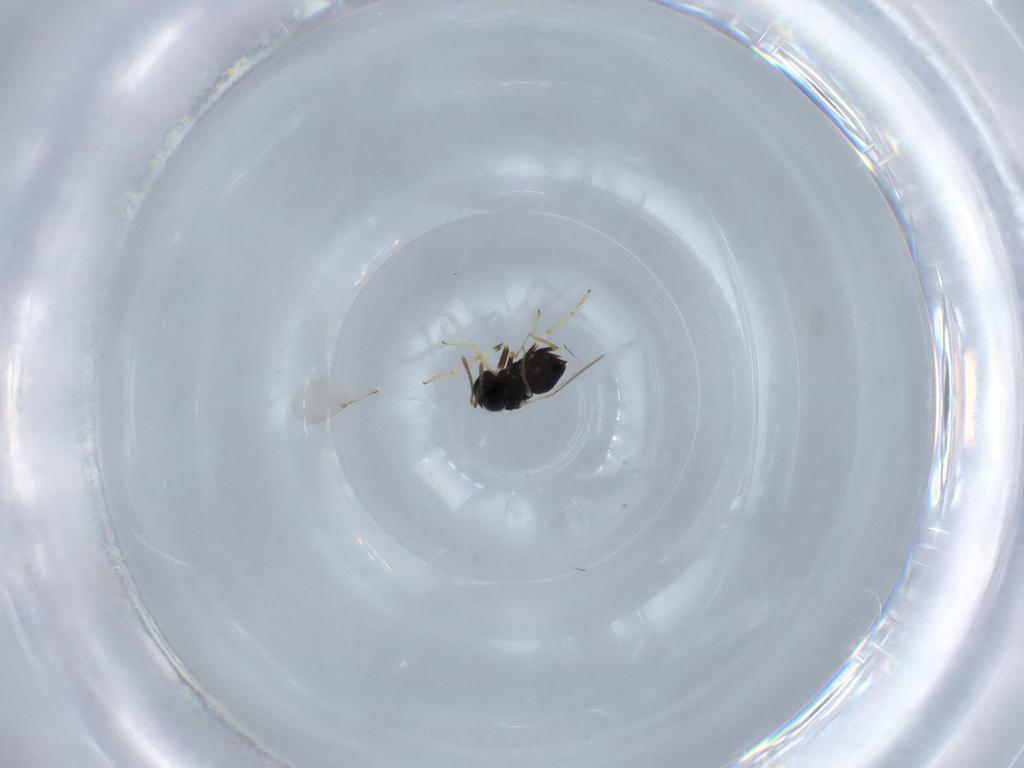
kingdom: Animalia
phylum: Arthropoda
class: Insecta
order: Hymenoptera
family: Encyrtidae
